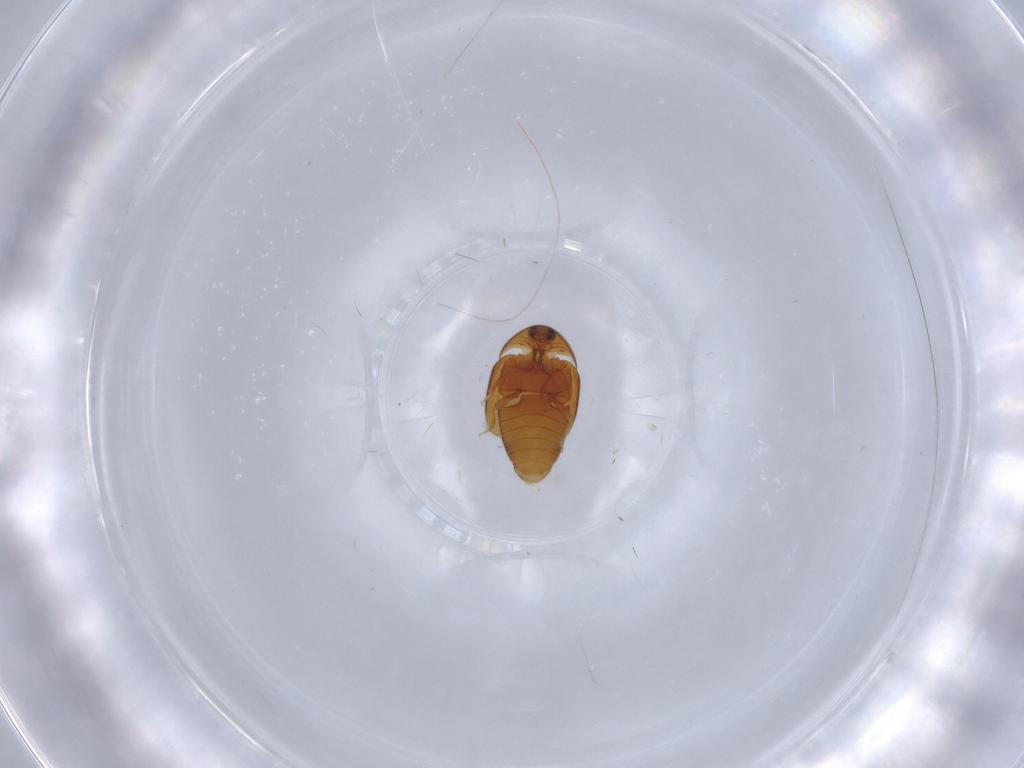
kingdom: Animalia
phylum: Arthropoda
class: Insecta
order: Coleoptera
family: Corylophidae
